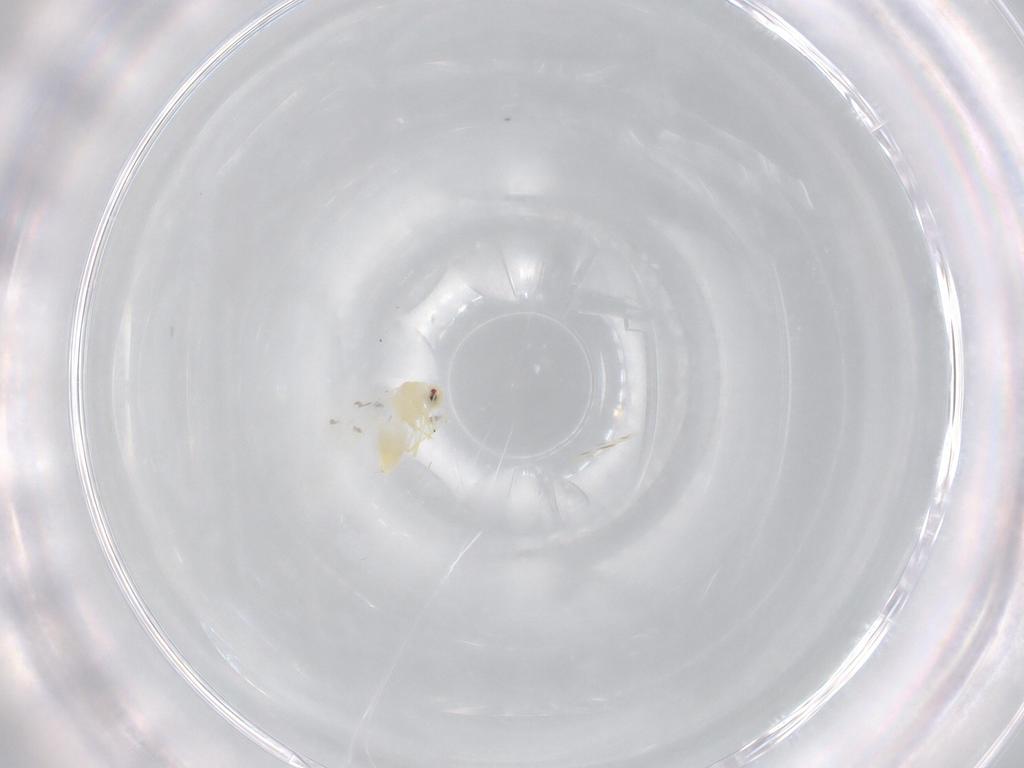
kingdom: Animalia
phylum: Arthropoda
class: Insecta
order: Hemiptera
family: Aleyrodidae
